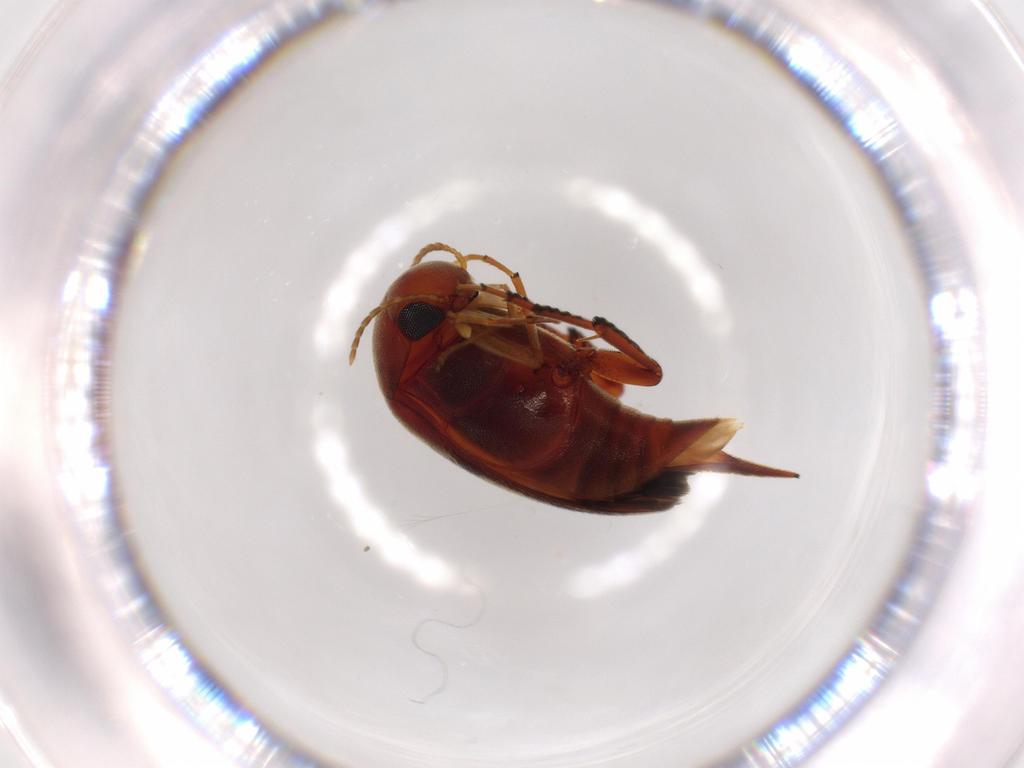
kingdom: Animalia
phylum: Arthropoda
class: Insecta
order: Coleoptera
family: Mordellidae
